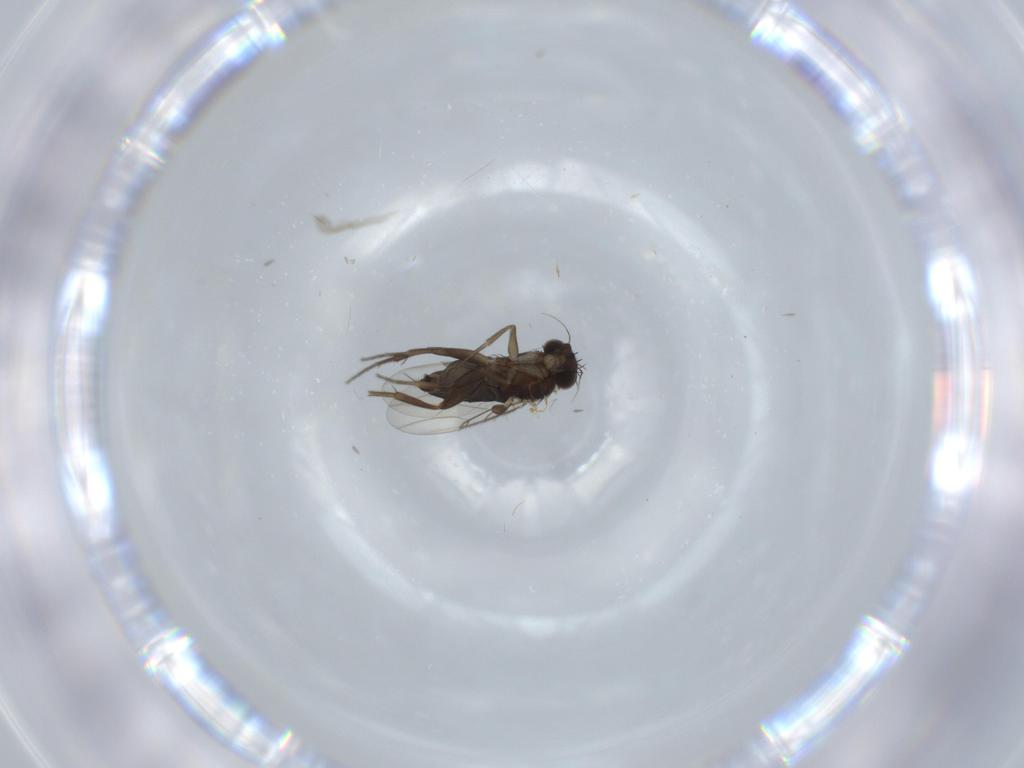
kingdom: Animalia
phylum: Arthropoda
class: Insecta
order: Diptera
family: Phoridae
